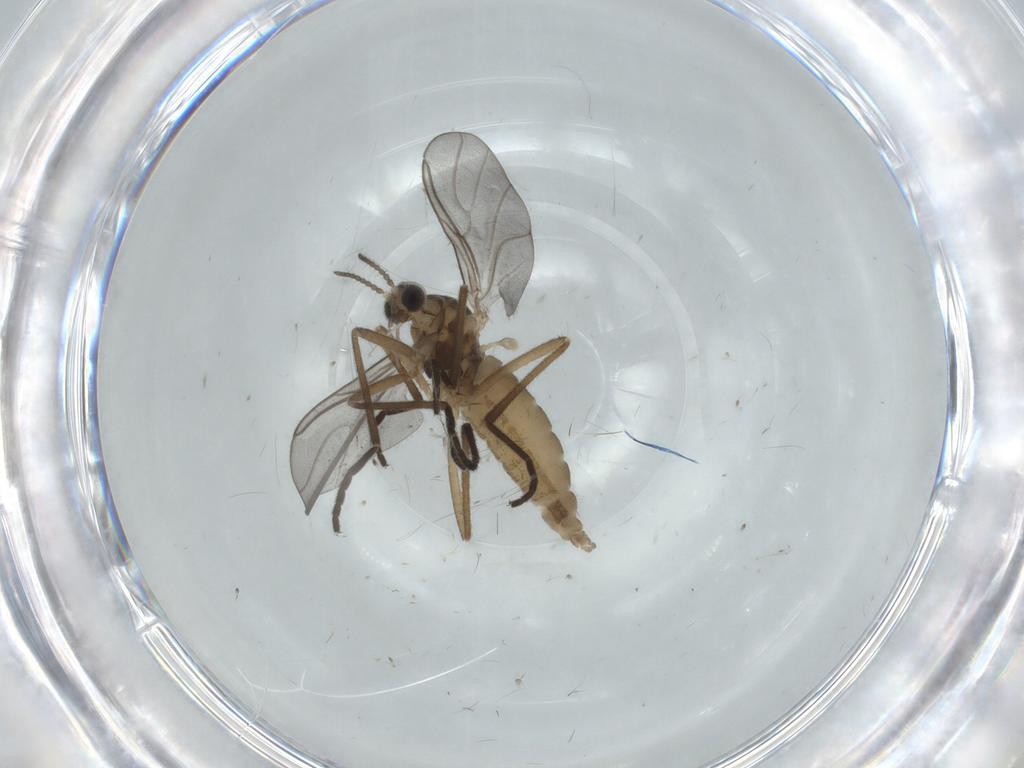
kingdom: Animalia
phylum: Arthropoda
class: Insecta
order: Diptera
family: Cecidomyiidae
